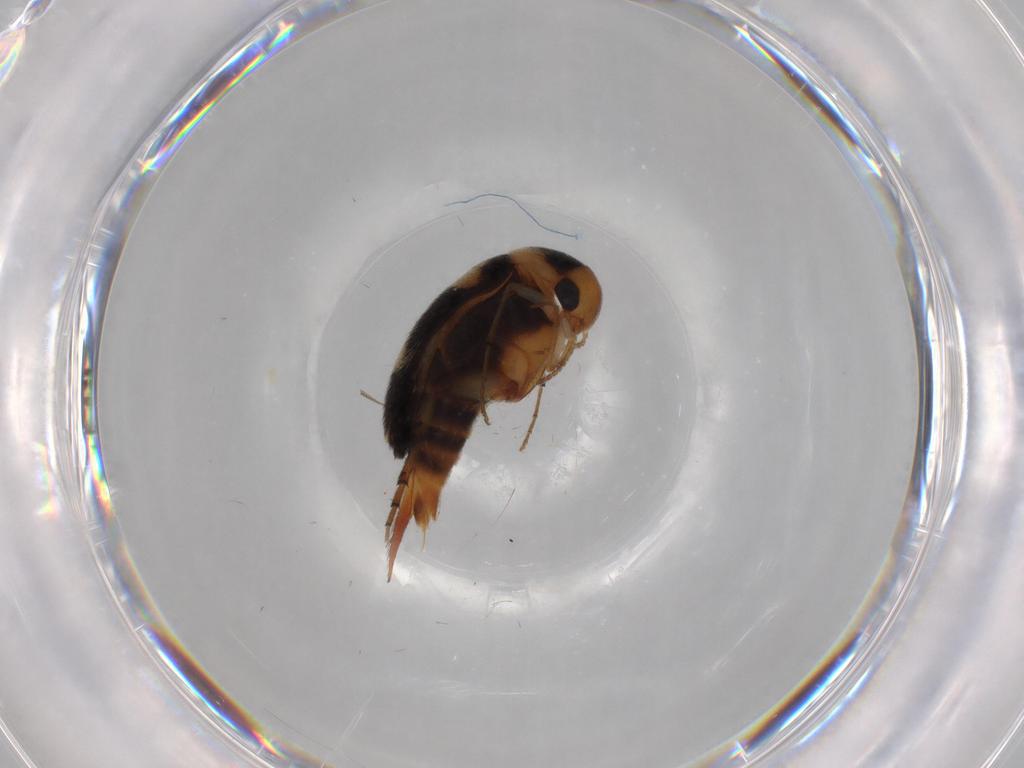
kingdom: Animalia
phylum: Arthropoda
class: Insecta
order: Coleoptera
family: Mordellidae
